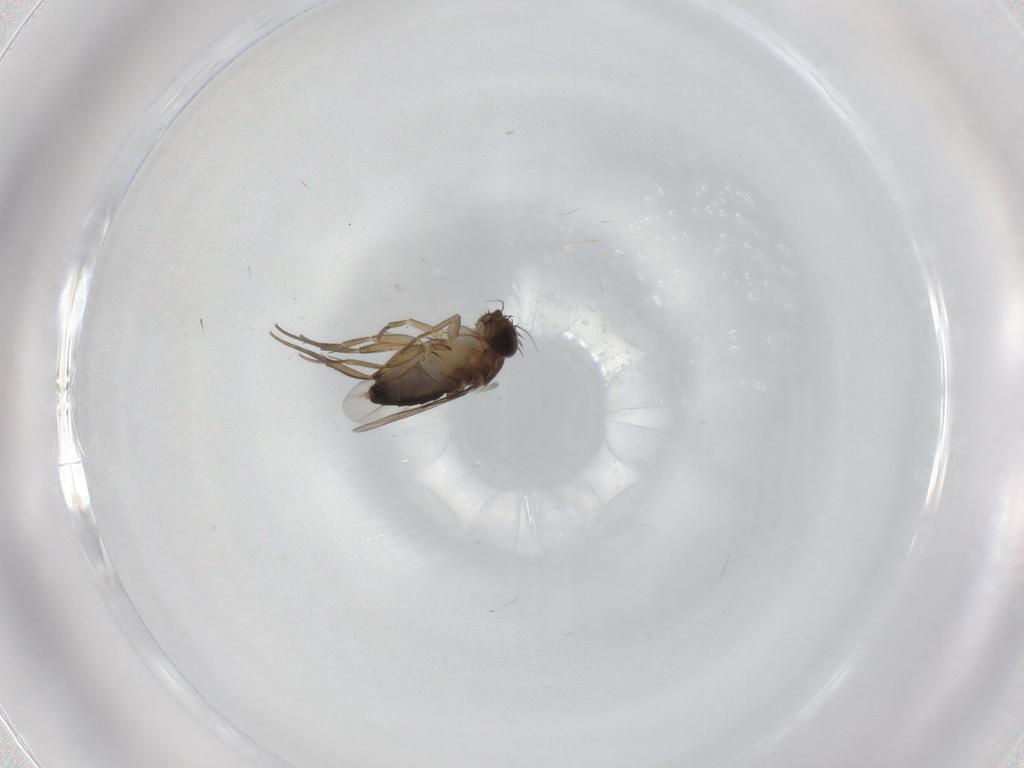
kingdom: Animalia
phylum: Arthropoda
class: Insecta
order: Diptera
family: Phoridae
